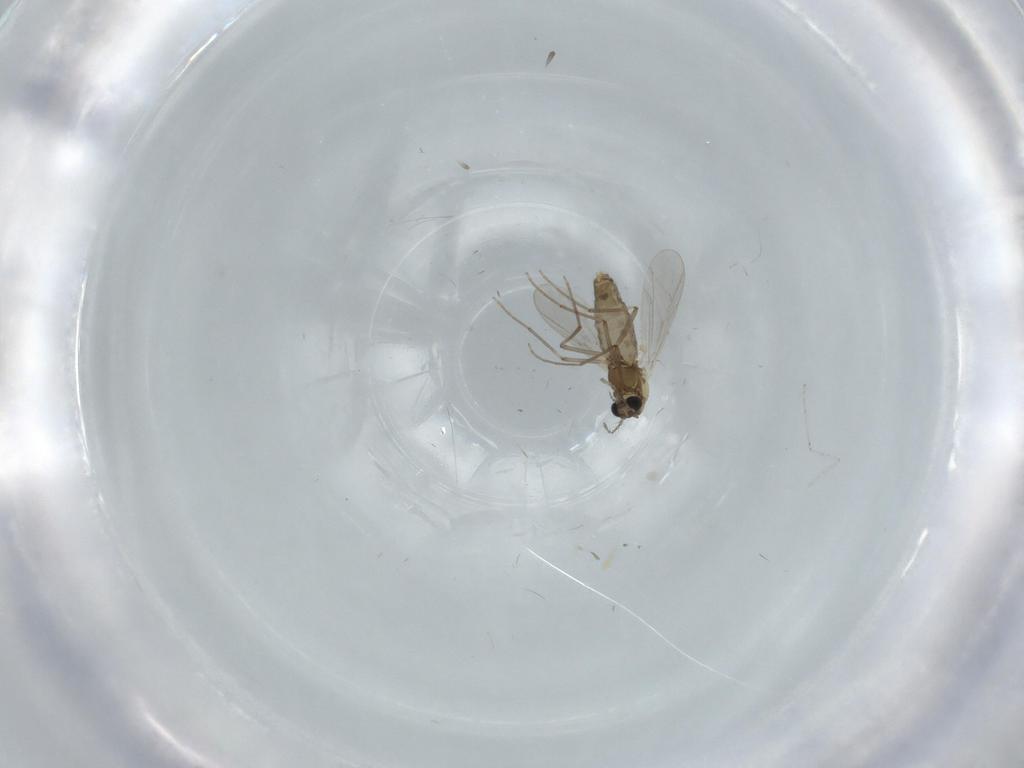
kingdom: Animalia
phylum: Arthropoda
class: Insecta
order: Diptera
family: Chironomidae
